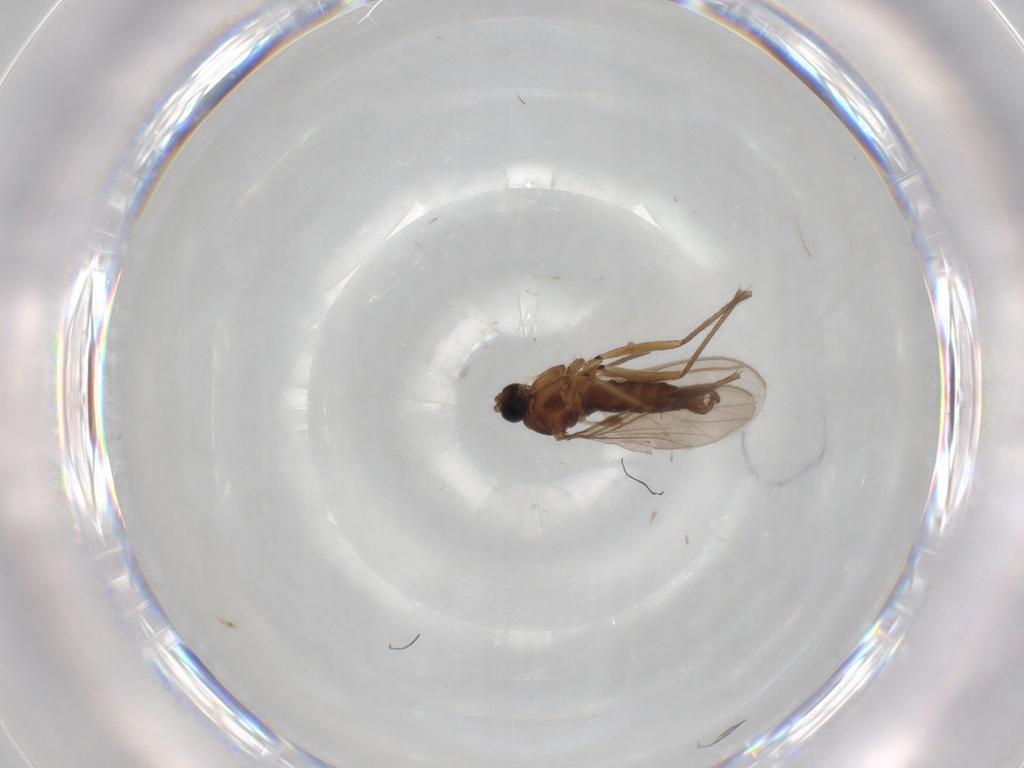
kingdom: Animalia
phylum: Arthropoda
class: Insecta
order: Diptera
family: Sciaridae
